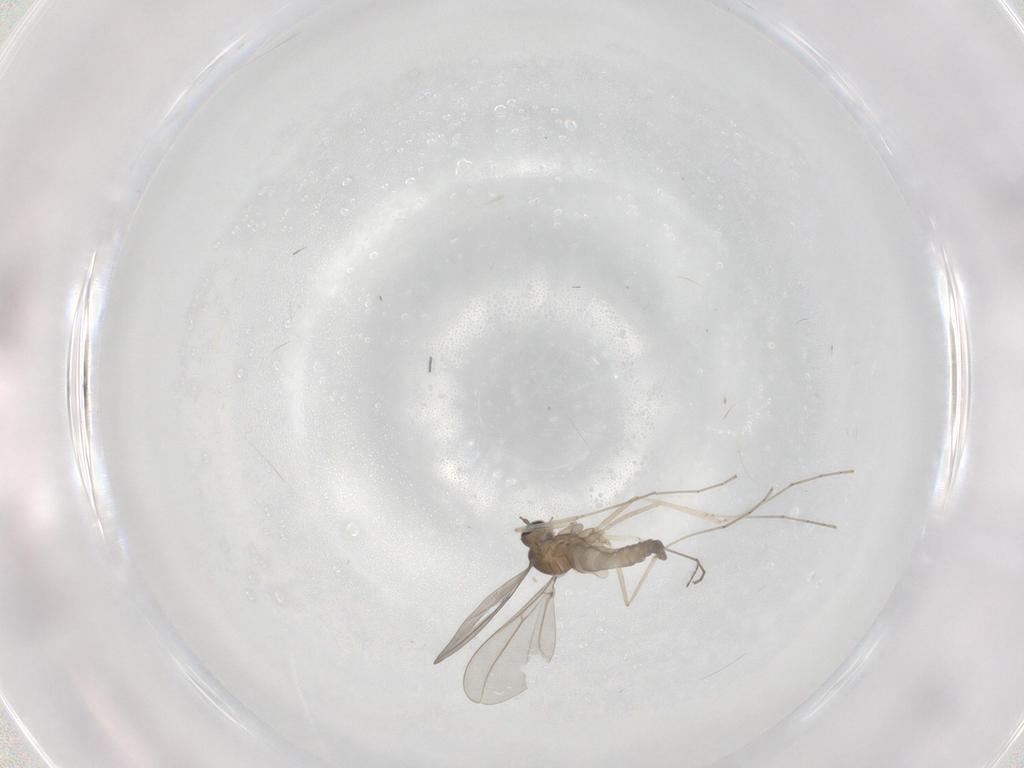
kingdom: Animalia
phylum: Arthropoda
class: Insecta
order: Diptera
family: Cecidomyiidae
